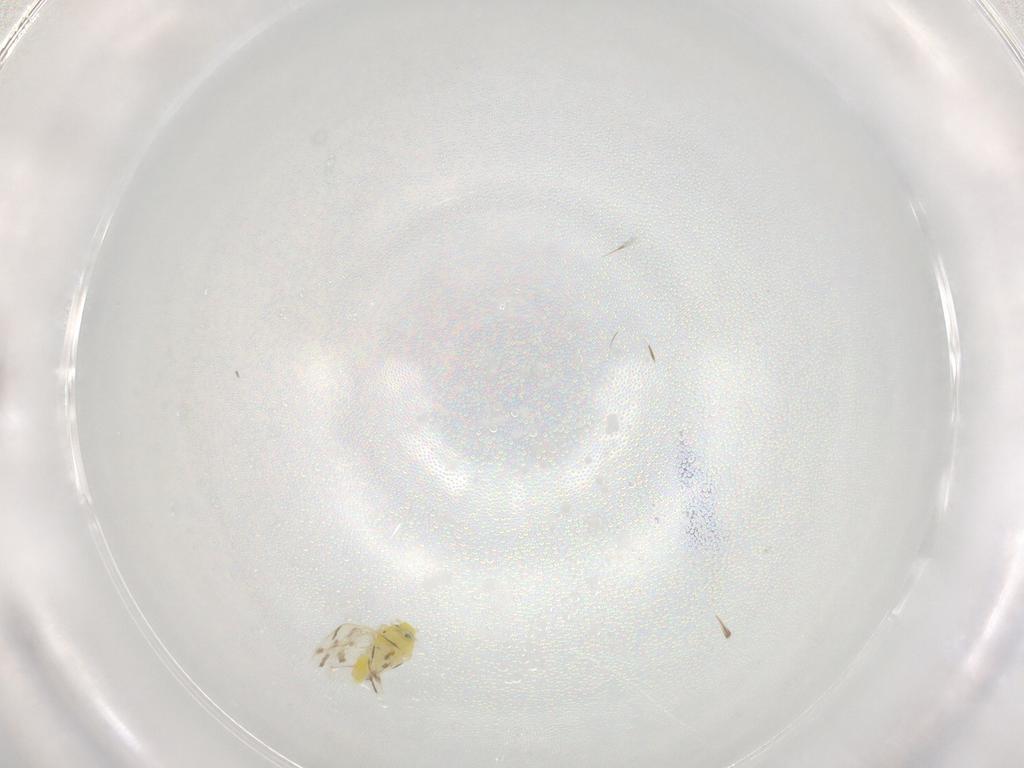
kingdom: Animalia
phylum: Arthropoda
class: Insecta
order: Hemiptera
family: Aleyrodidae
